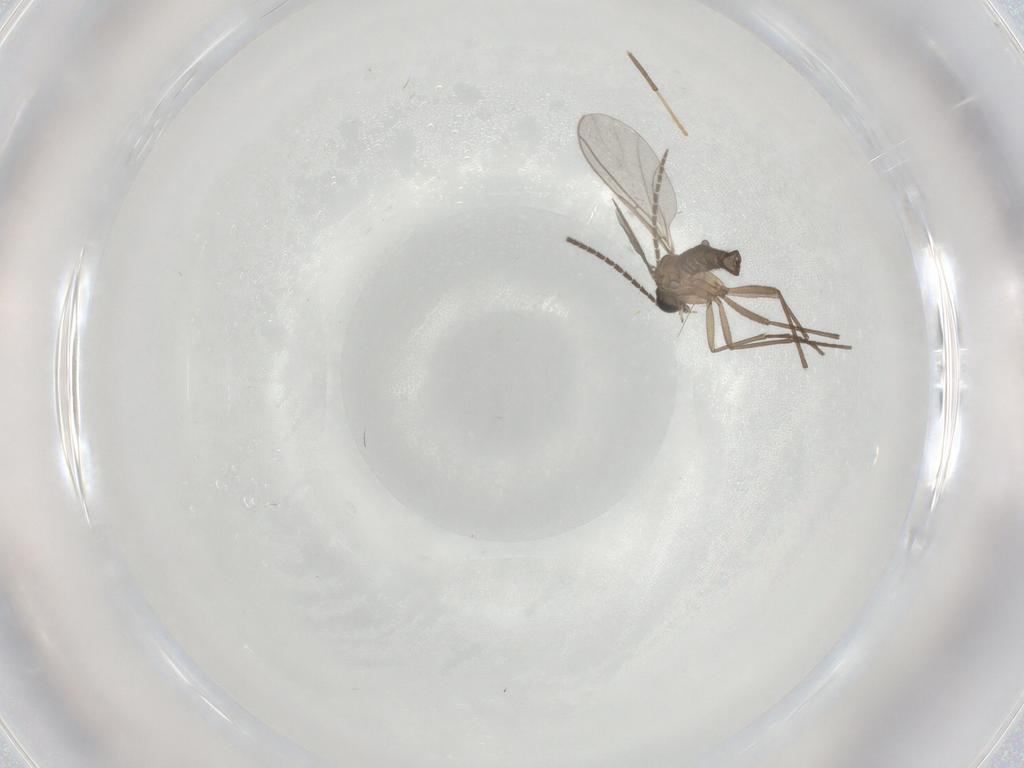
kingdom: Animalia
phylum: Arthropoda
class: Insecta
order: Diptera
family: Sciaridae
